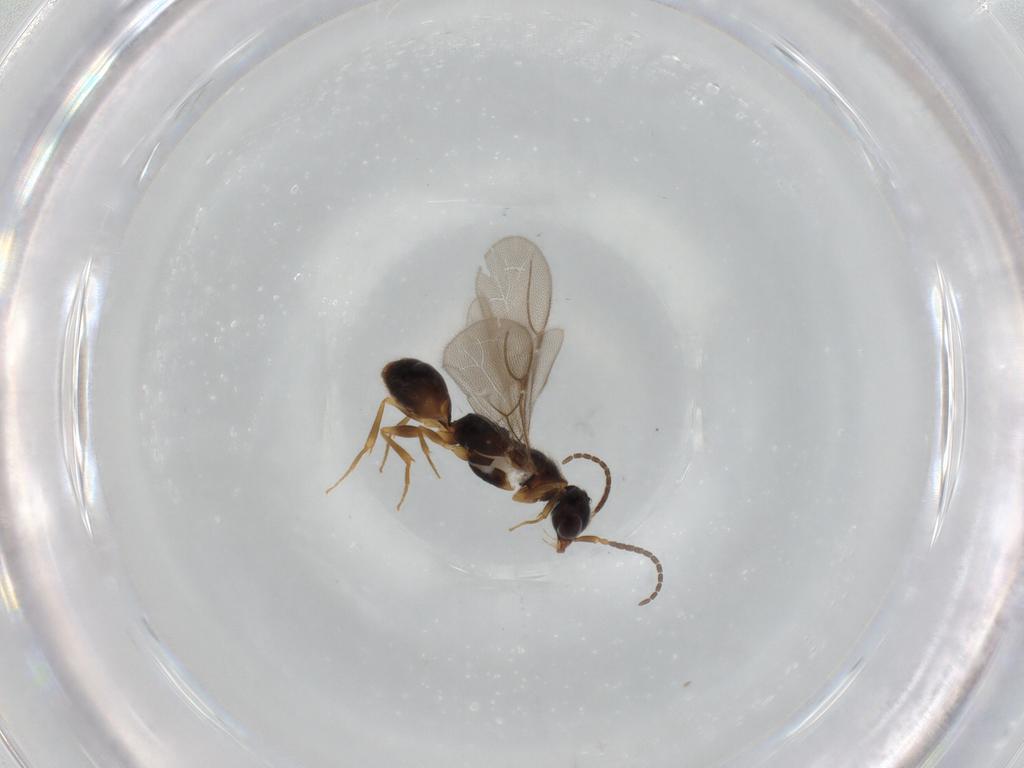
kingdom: Animalia
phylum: Arthropoda
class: Insecta
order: Hymenoptera
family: Bethylidae
